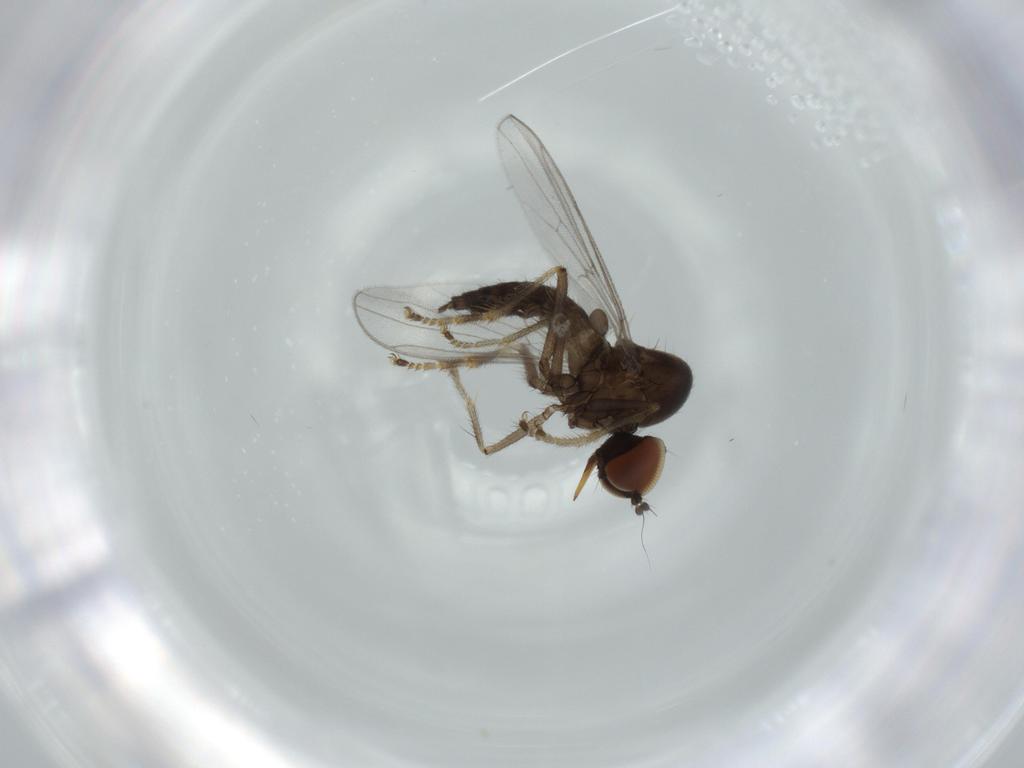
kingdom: Animalia
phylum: Arthropoda
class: Insecta
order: Diptera
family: Hybotidae
